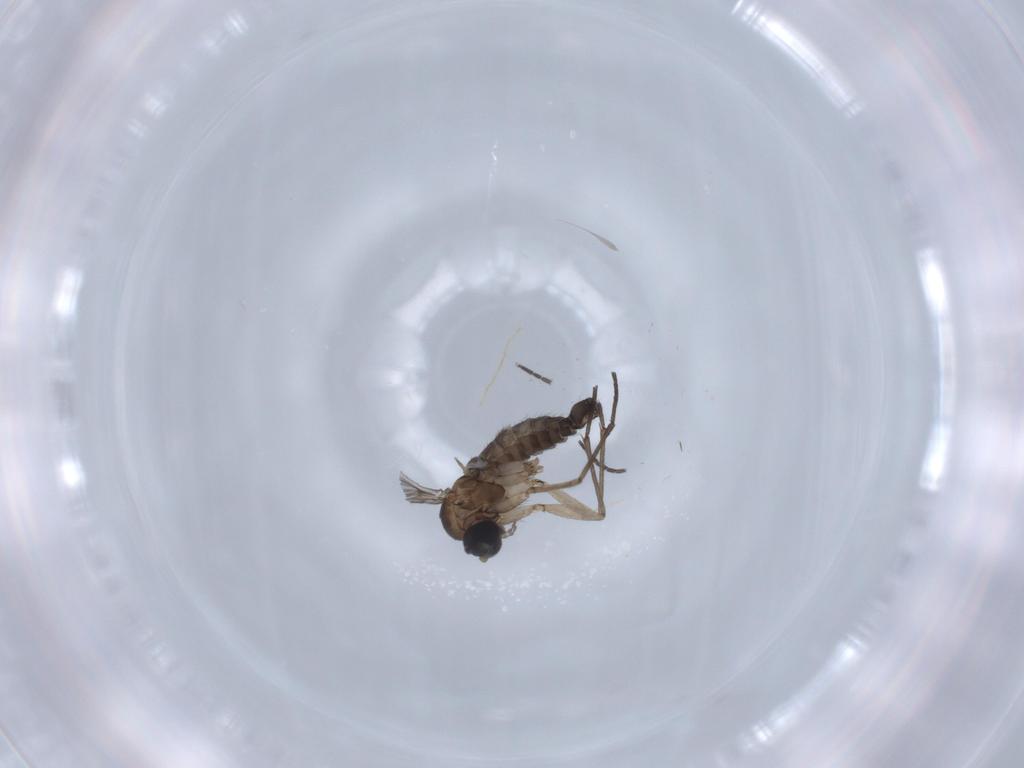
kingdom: Animalia
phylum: Arthropoda
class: Insecta
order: Diptera
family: Sciaridae
